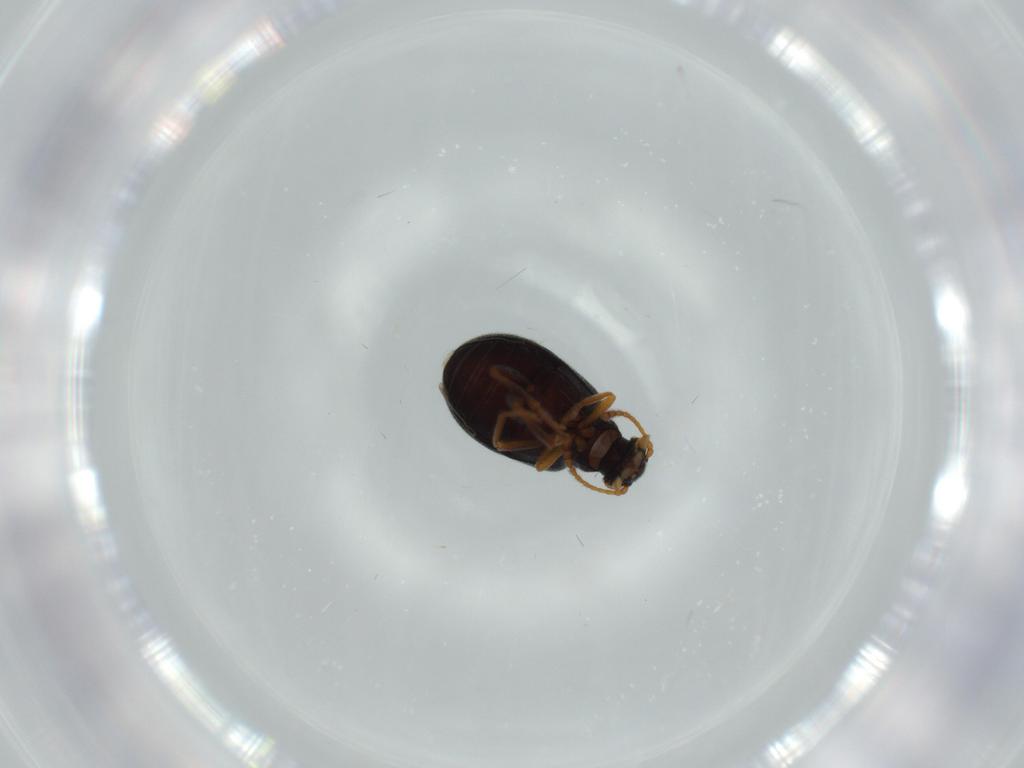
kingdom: Animalia
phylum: Arthropoda
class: Insecta
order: Coleoptera
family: Aderidae
